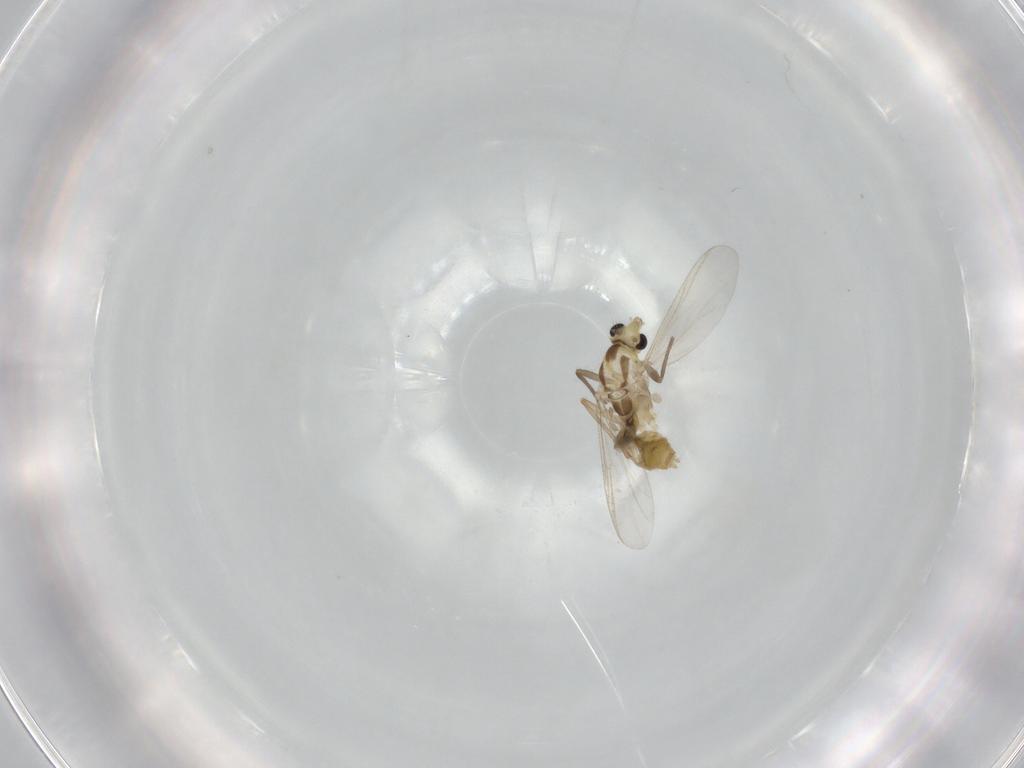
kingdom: Animalia
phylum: Arthropoda
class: Insecta
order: Diptera
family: Chironomidae
